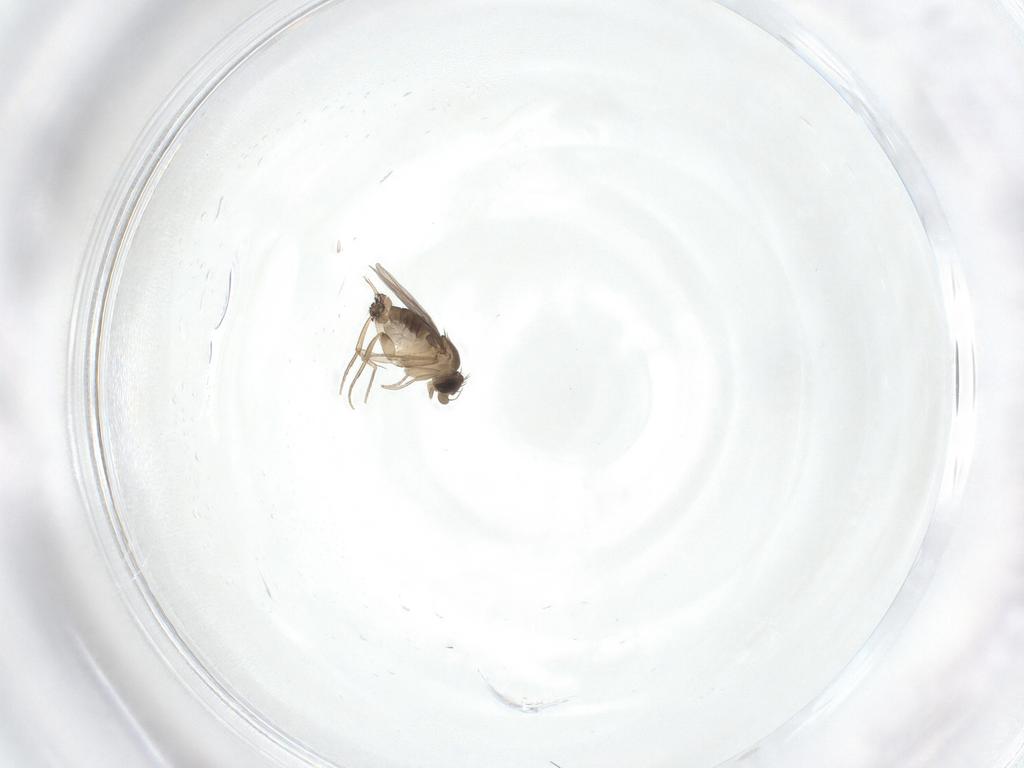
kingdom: Animalia
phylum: Arthropoda
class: Insecta
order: Diptera
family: Phoridae
